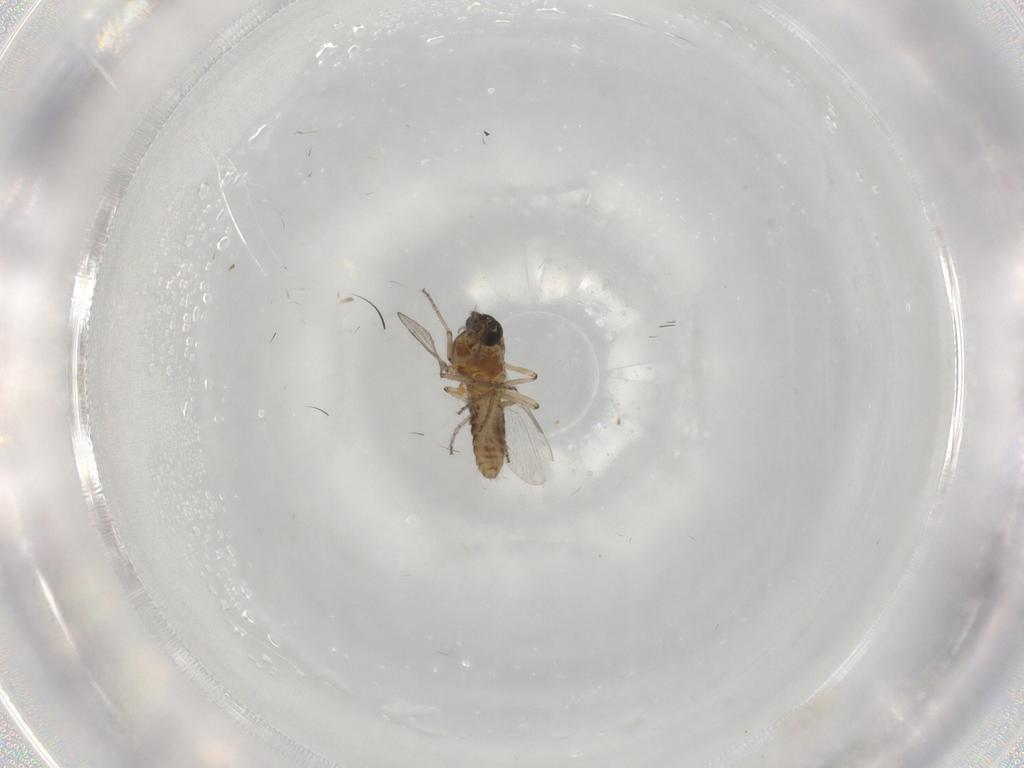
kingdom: Animalia
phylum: Arthropoda
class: Insecta
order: Diptera
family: Ceratopogonidae
